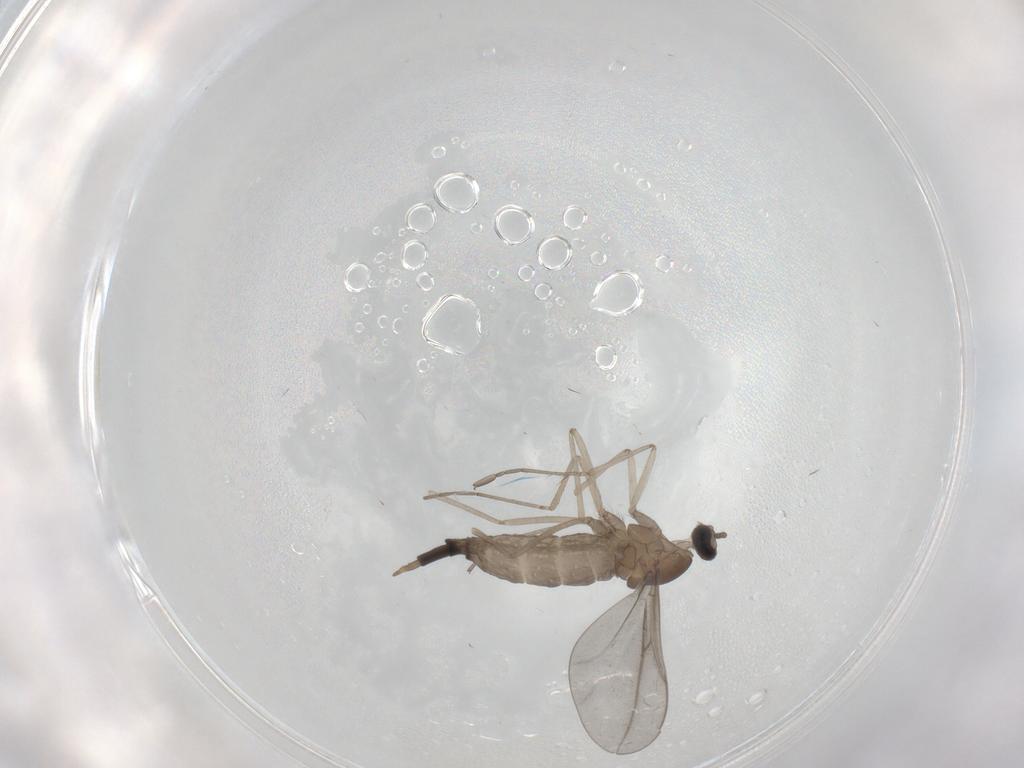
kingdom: Animalia
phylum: Arthropoda
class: Insecta
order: Diptera
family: Cecidomyiidae
